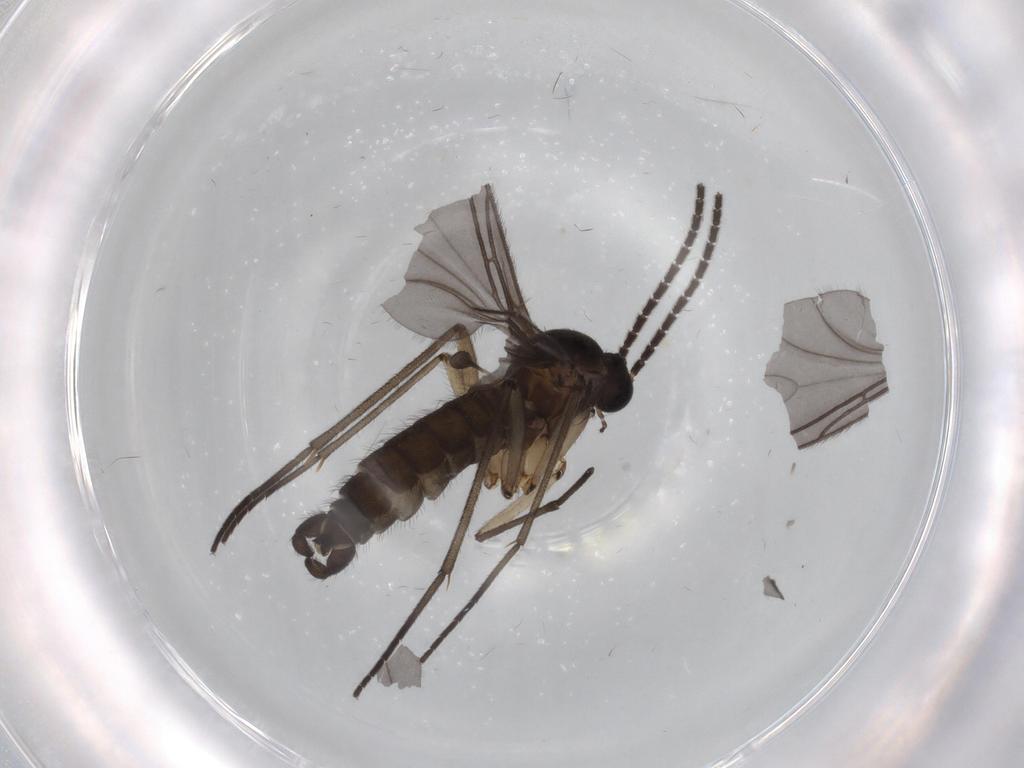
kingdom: Animalia
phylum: Arthropoda
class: Insecta
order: Diptera
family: Sciaridae
